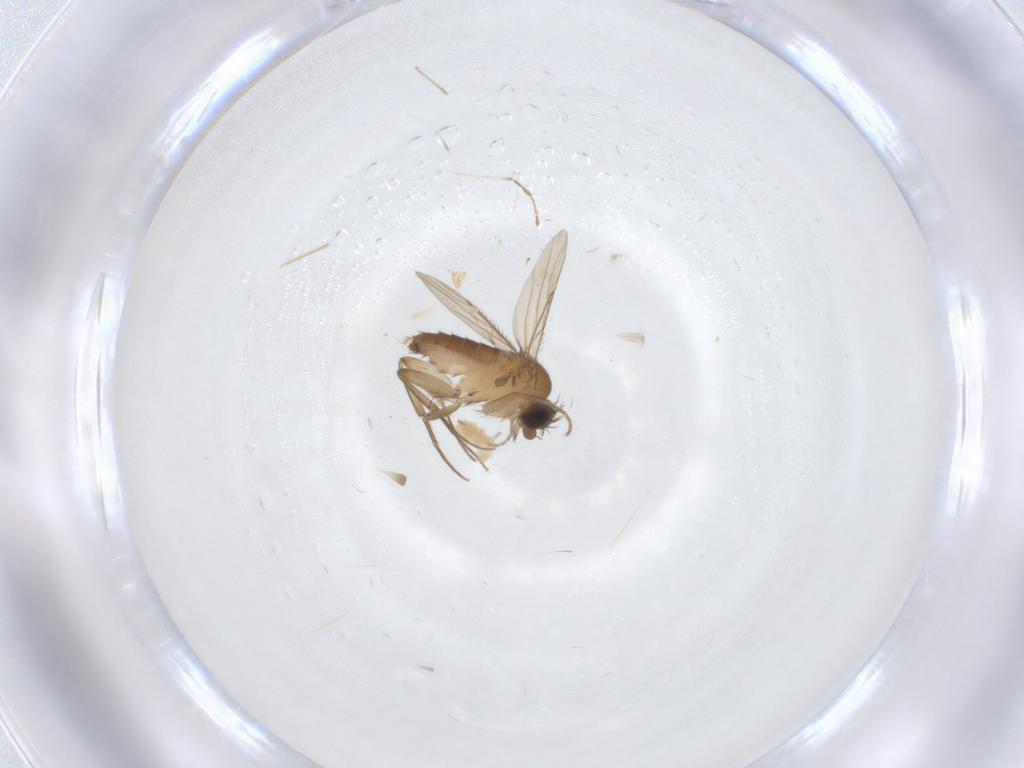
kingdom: Animalia
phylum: Arthropoda
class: Insecta
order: Diptera
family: Phoridae
